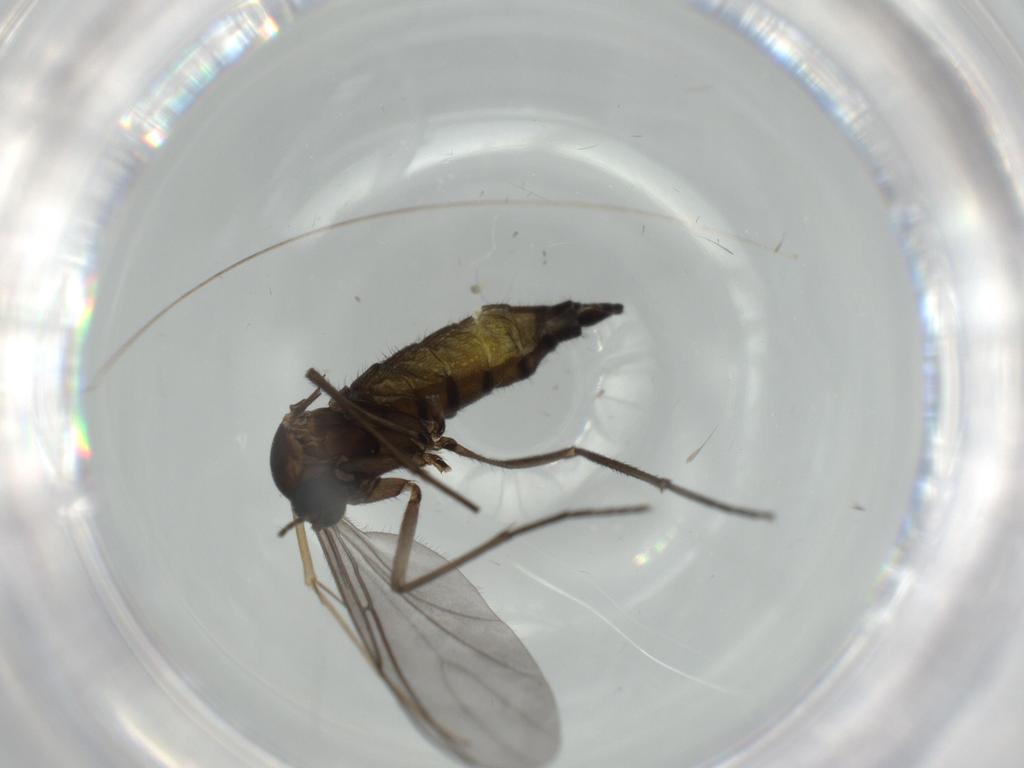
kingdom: Animalia
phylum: Arthropoda
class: Insecta
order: Diptera
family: Sciaridae
